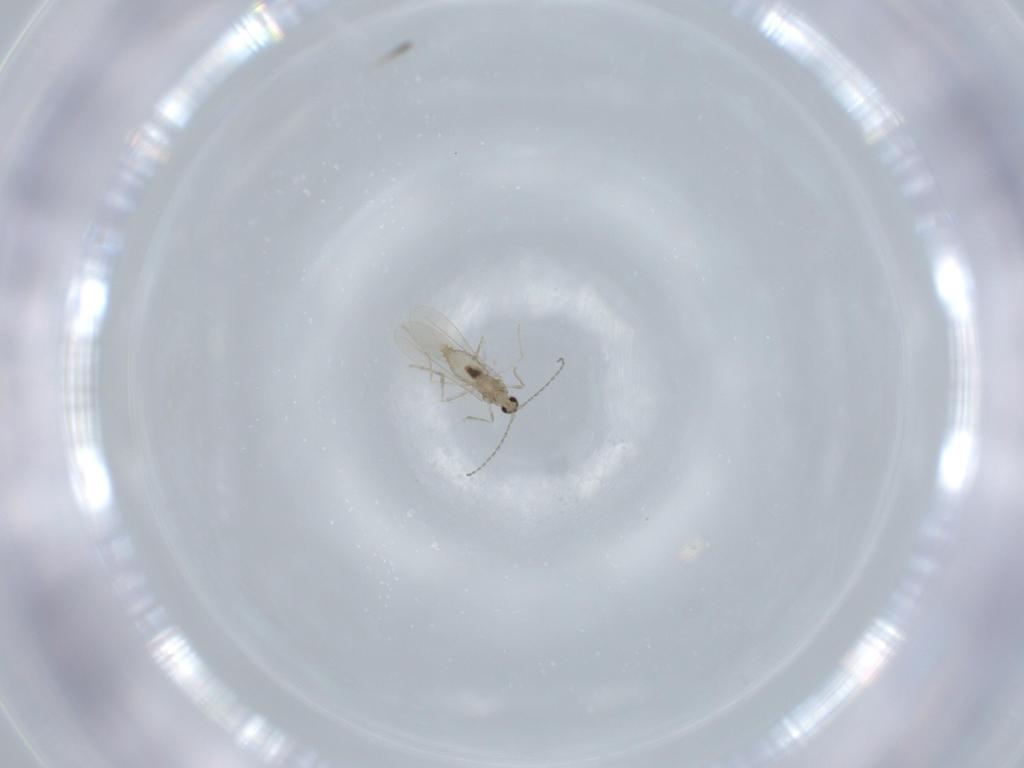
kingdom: Animalia
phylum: Arthropoda
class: Insecta
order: Diptera
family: Cecidomyiidae
